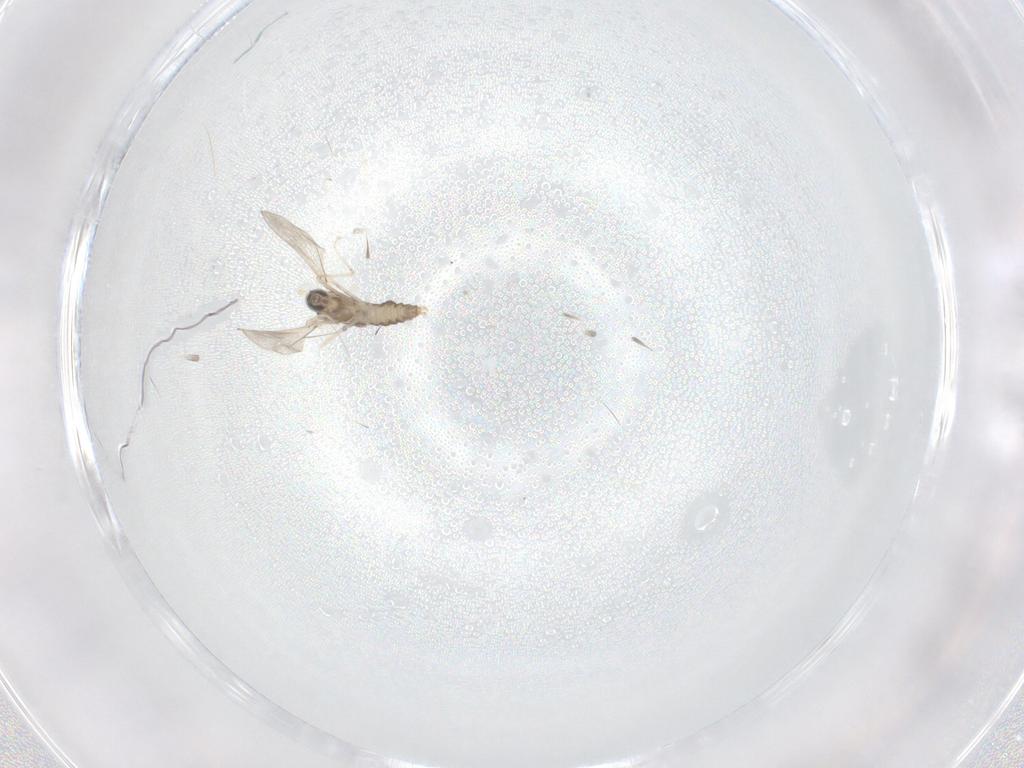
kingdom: Animalia
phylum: Arthropoda
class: Insecta
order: Diptera
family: Cecidomyiidae
